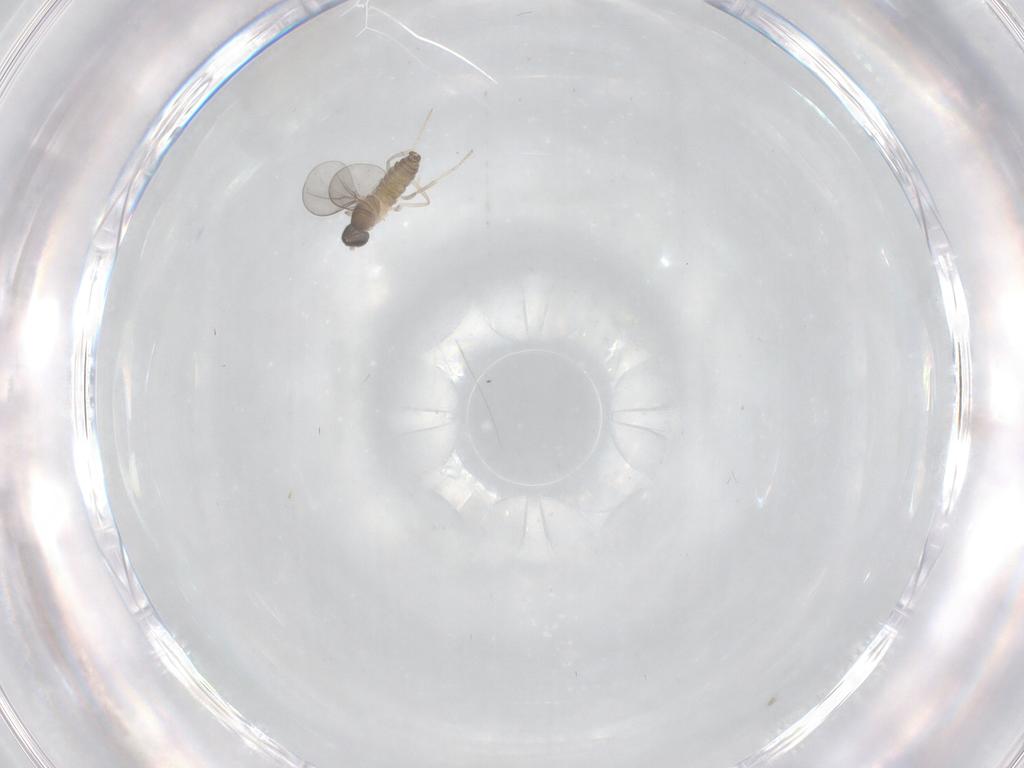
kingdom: Animalia
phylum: Arthropoda
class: Insecta
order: Diptera
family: Cecidomyiidae
